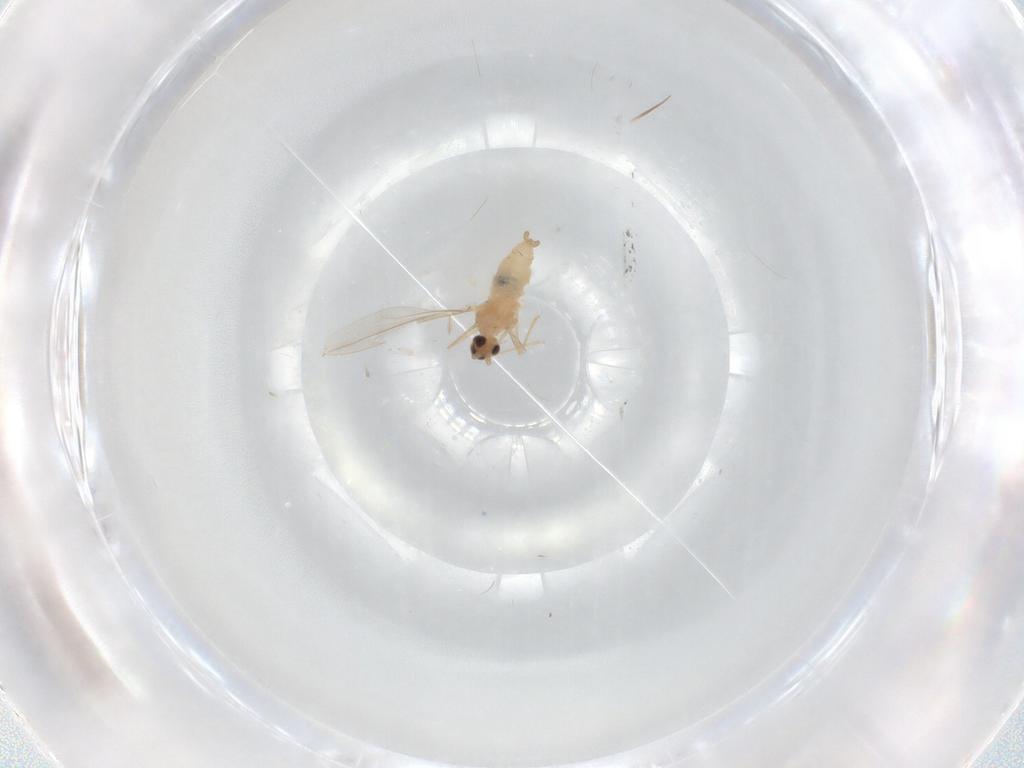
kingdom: Animalia
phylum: Arthropoda
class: Insecta
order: Diptera
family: Cecidomyiidae
